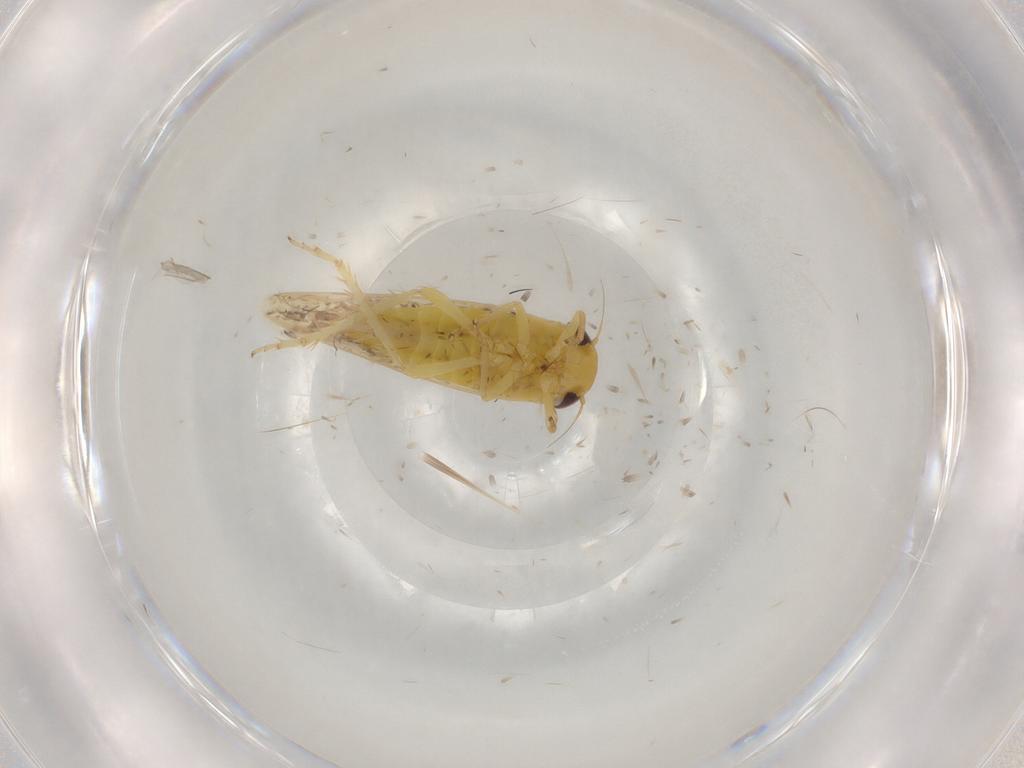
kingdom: Animalia
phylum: Arthropoda
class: Insecta
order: Hemiptera
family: Cicadellidae
